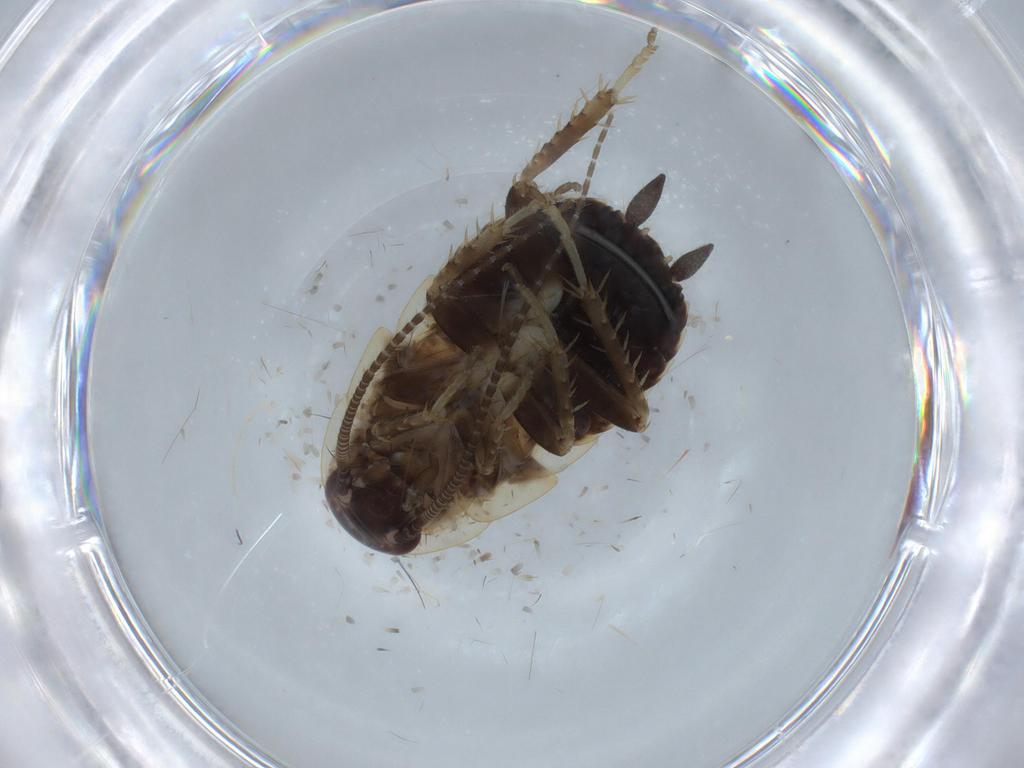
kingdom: Animalia
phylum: Arthropoda
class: Insecta
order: Blattodea
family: Ectobiidae
